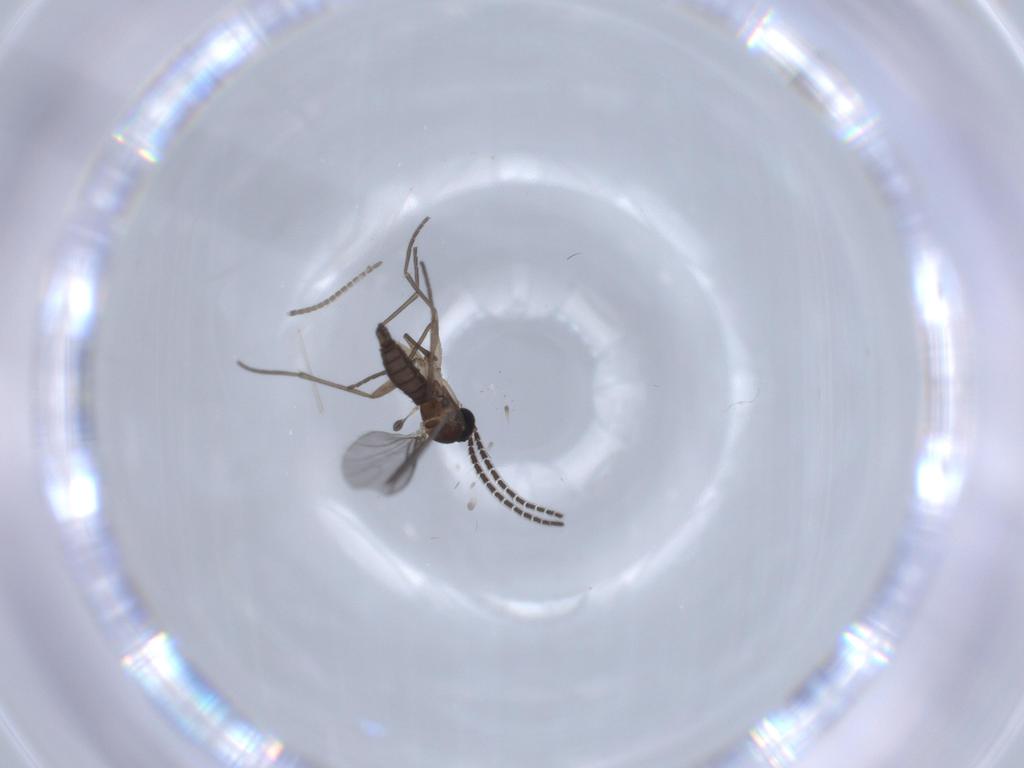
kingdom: Animalia
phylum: Arthropoda
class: Insecta
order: Diptera
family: Sciaridae
